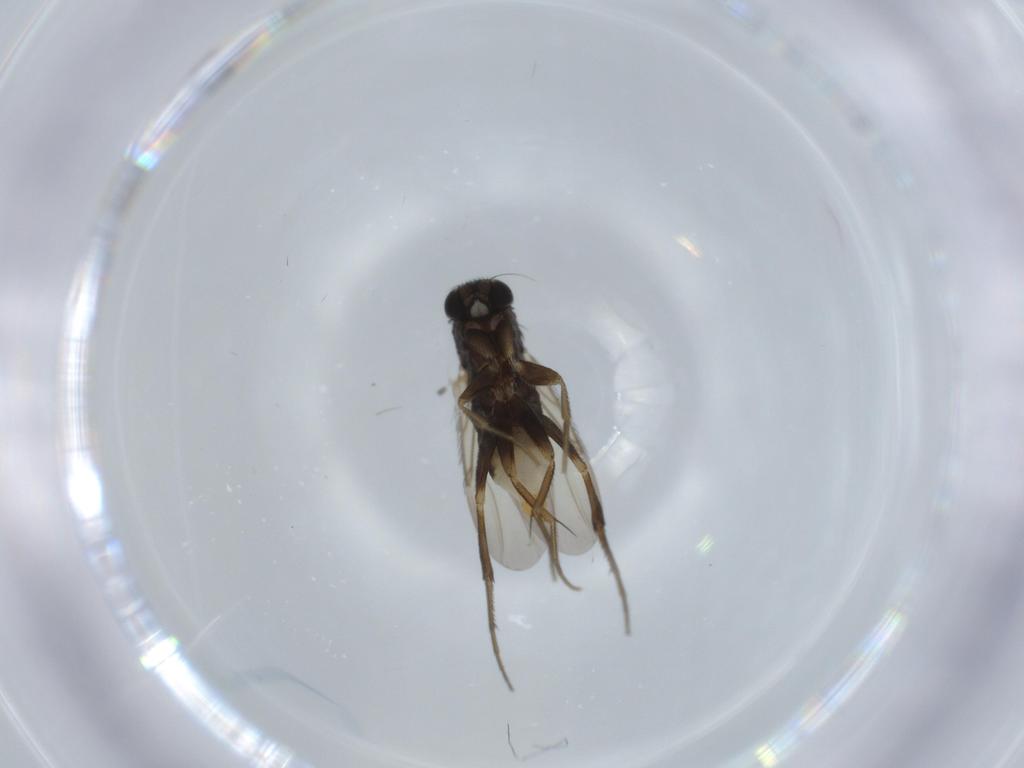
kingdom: Animalia
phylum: Arthropoda
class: Insecta
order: Diptera
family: Phoridae
